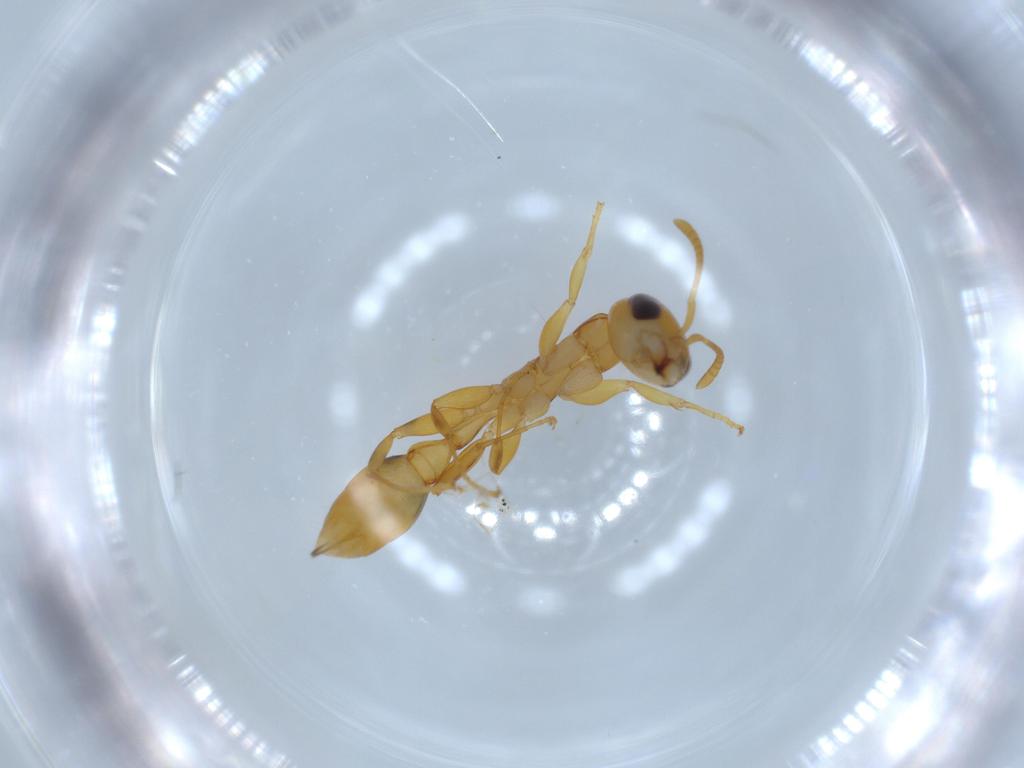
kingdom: Animalia
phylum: Arthropoda
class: Insecta
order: Hymenoptera
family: Formicidae
